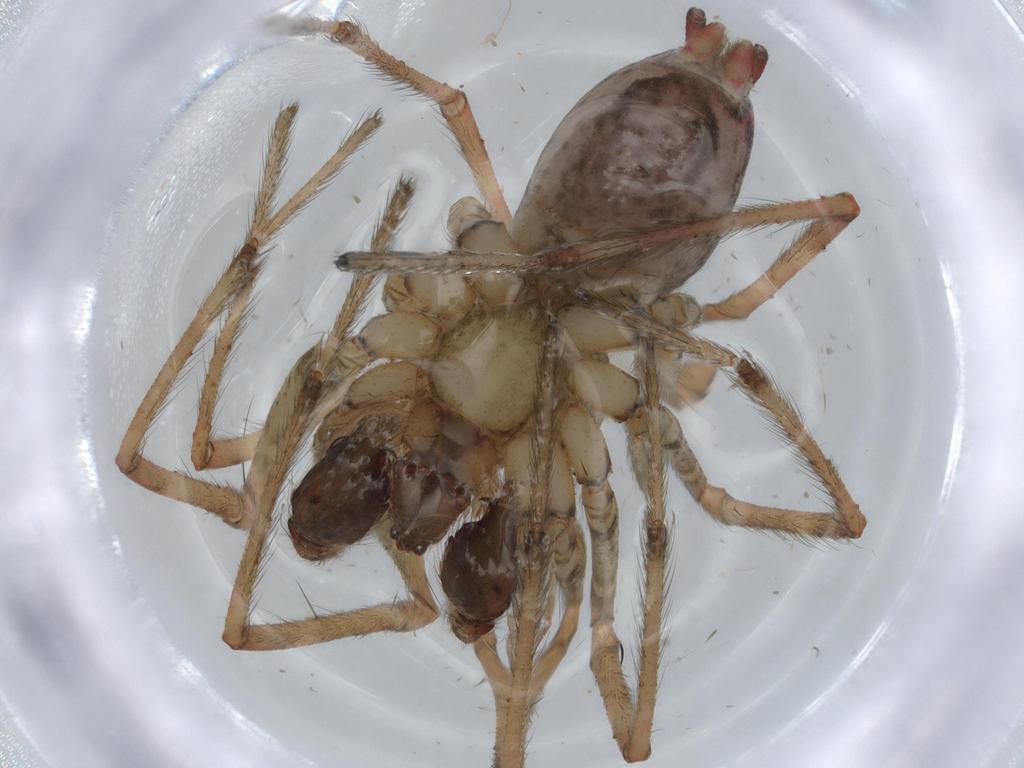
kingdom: Animalia
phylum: Arthropoda
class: Arachnida
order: Araneae
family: Agelenidae
